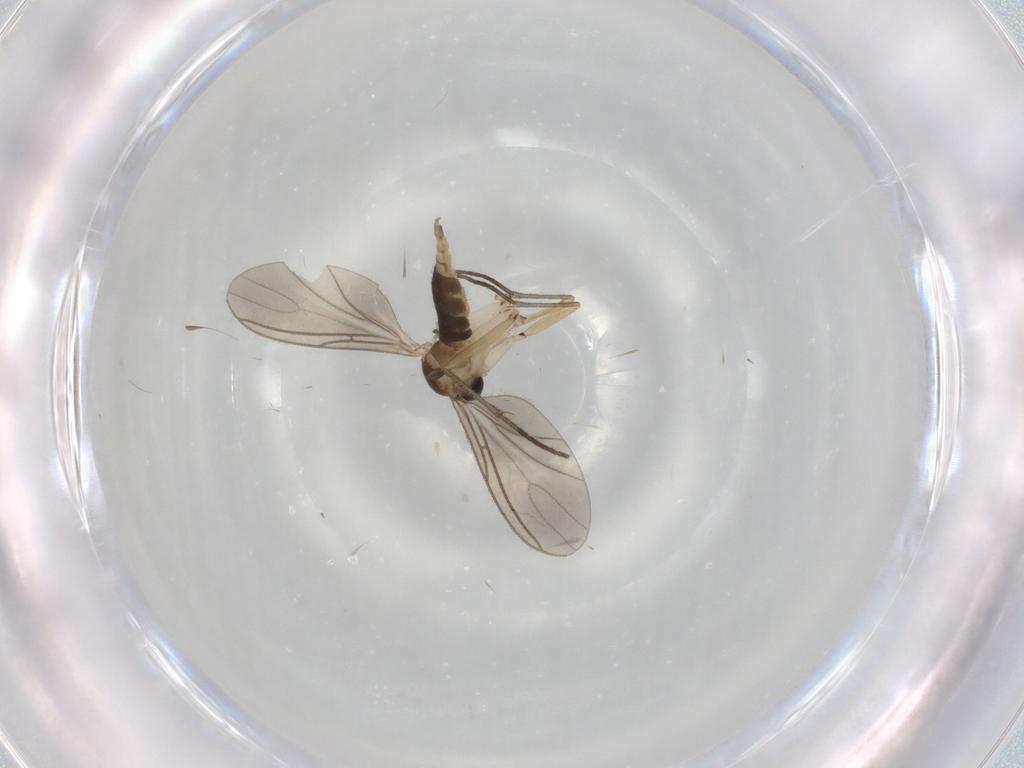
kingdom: Animalia
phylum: Arthropoda
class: Insecta
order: Diptera
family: Sciaridae
